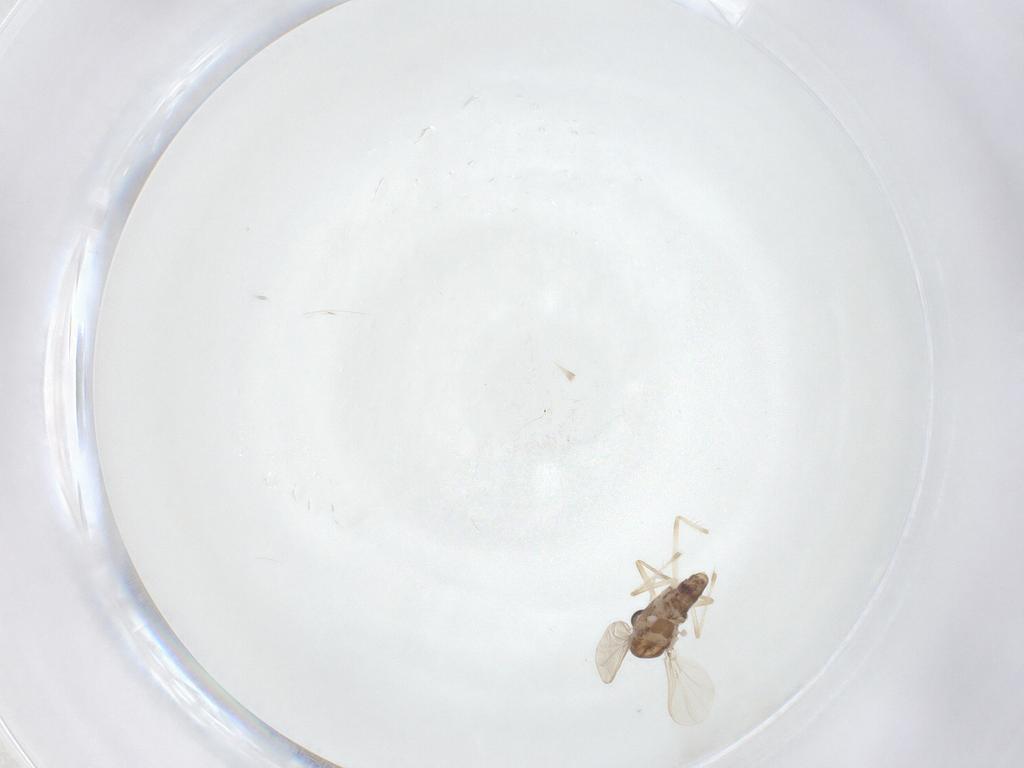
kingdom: Animalia
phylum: Arthropoda
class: Insecta
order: Diptera
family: Chironomidae
